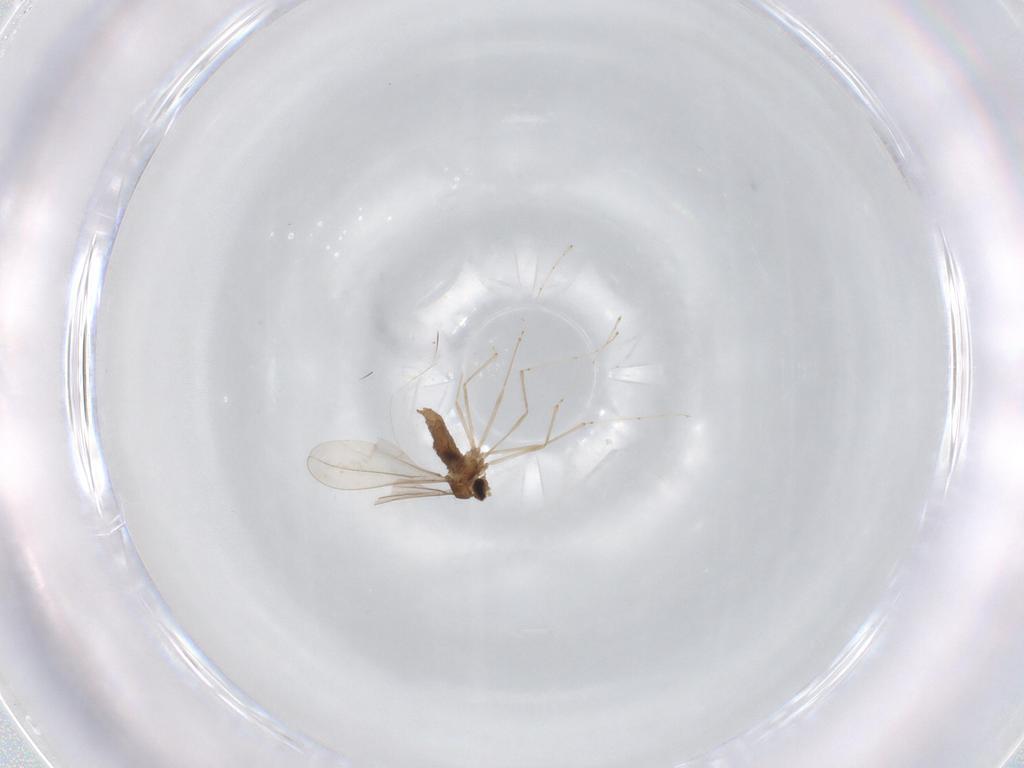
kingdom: Animalia
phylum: Arthropoda
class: Insecta
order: Diptera
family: Cecidomyiidae
